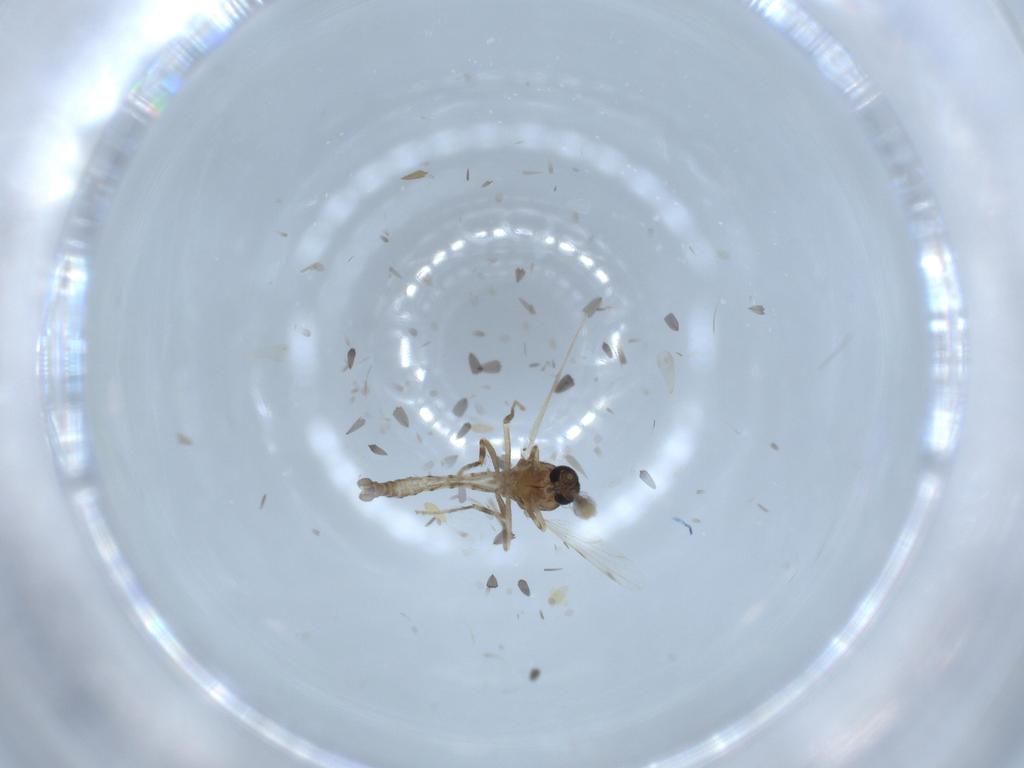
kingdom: Animalia
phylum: Arthropoda
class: Insecta
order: Diptera
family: Ceratopogonidae
